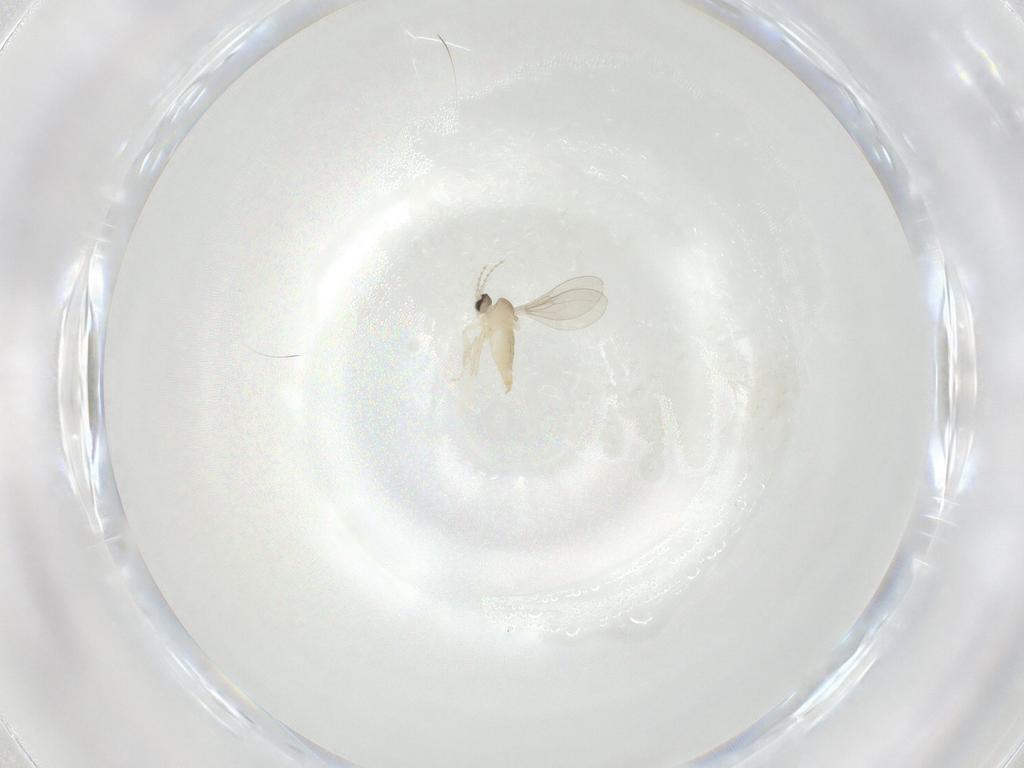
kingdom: Animalia
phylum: Arthropoda
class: Insecta
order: Diptera
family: Cecidomyiidae
